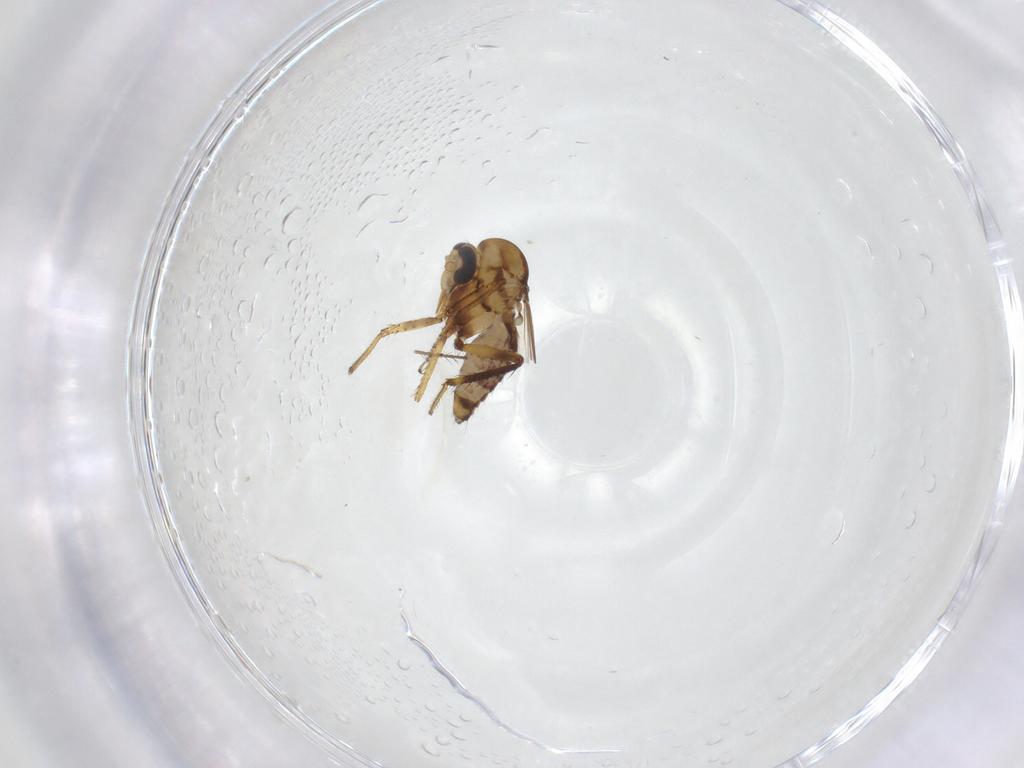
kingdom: Animalia
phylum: Arthropoda
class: Insecta
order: Diptera
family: Ceratopogonidae
